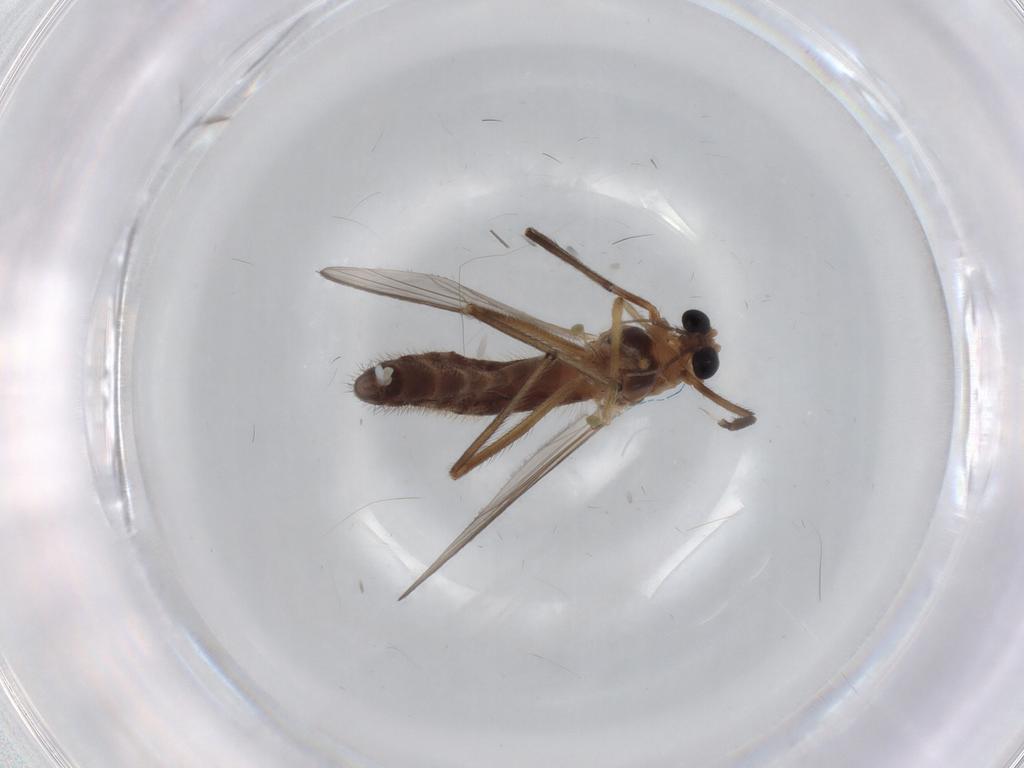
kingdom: Animalia
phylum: Arthropoda
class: Insecta
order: Diptera
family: Chironomidae
